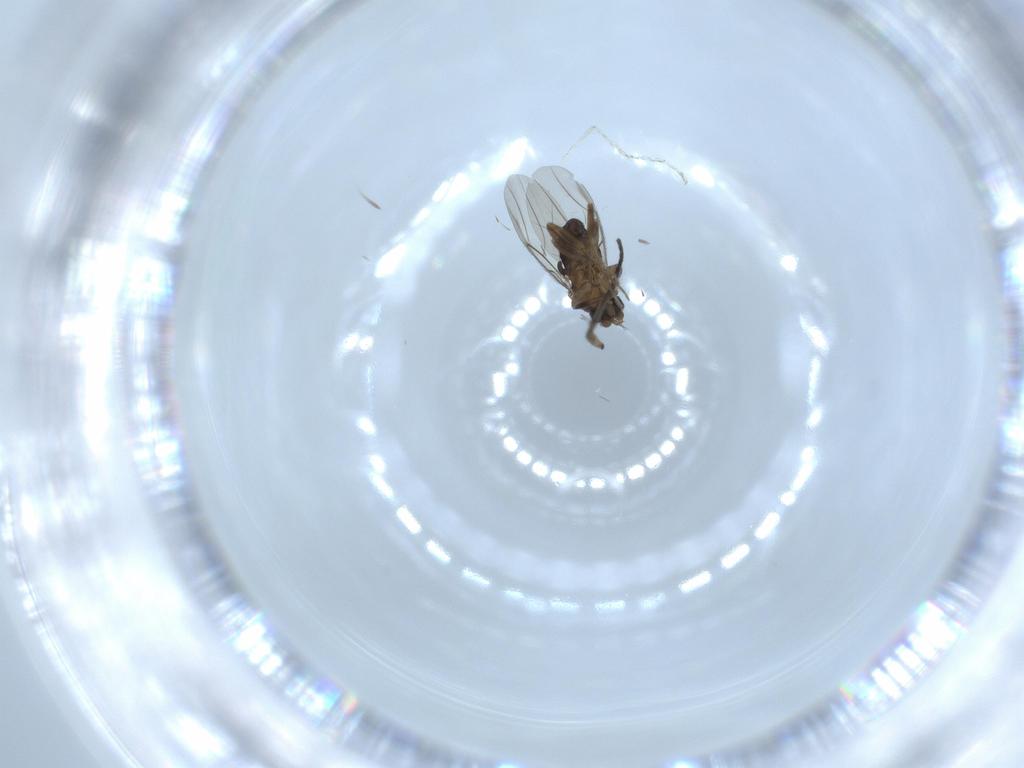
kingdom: Animalia
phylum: Arthropoda
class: Insecta
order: Diptera
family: Phoridae
